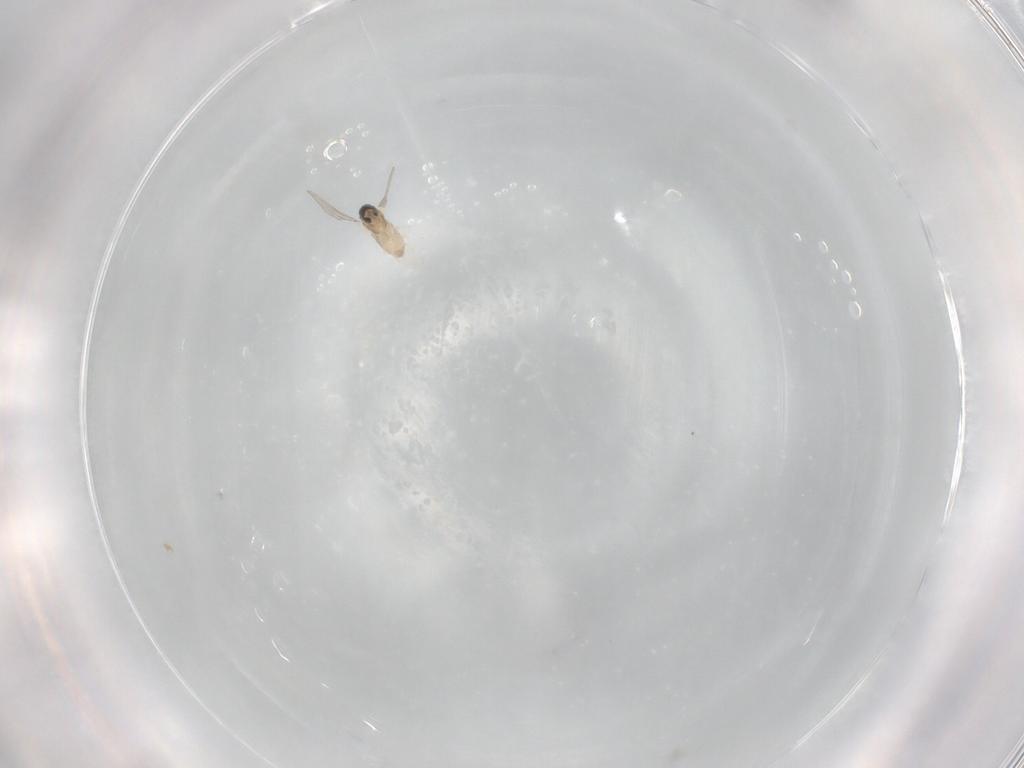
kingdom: Animalia
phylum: Arthropoda
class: Insecta
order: Diptera
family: Cecidomyiidae
